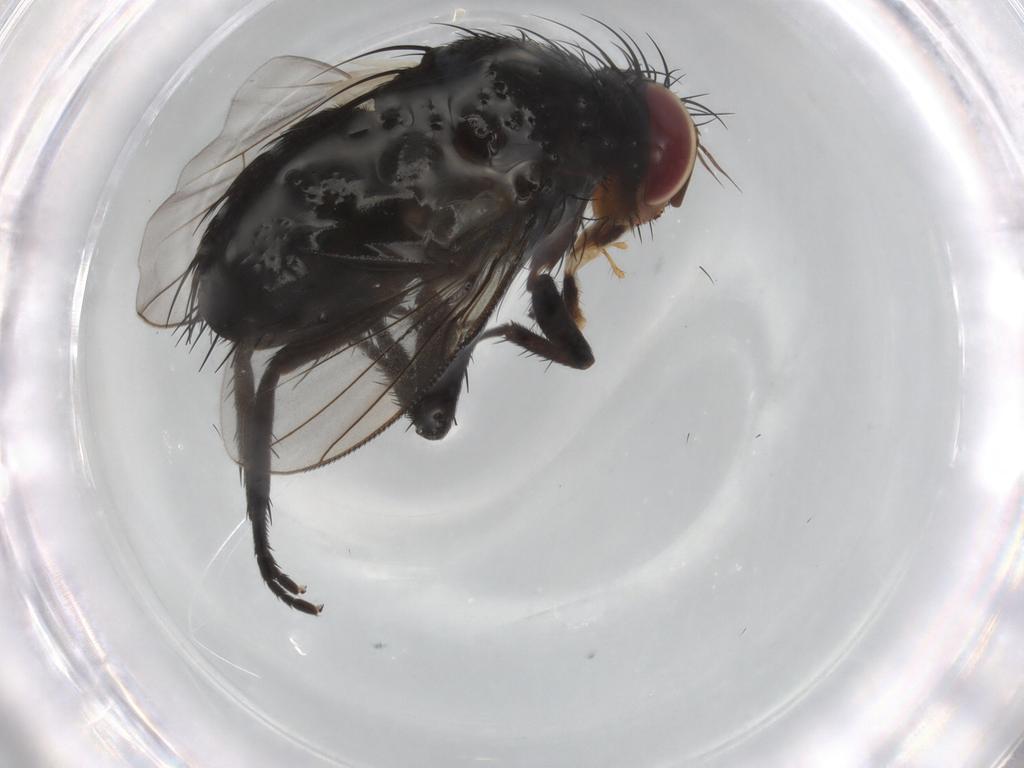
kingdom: Animalia
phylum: Arthropoda
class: Insecta
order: Diptera
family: Tachinidae
